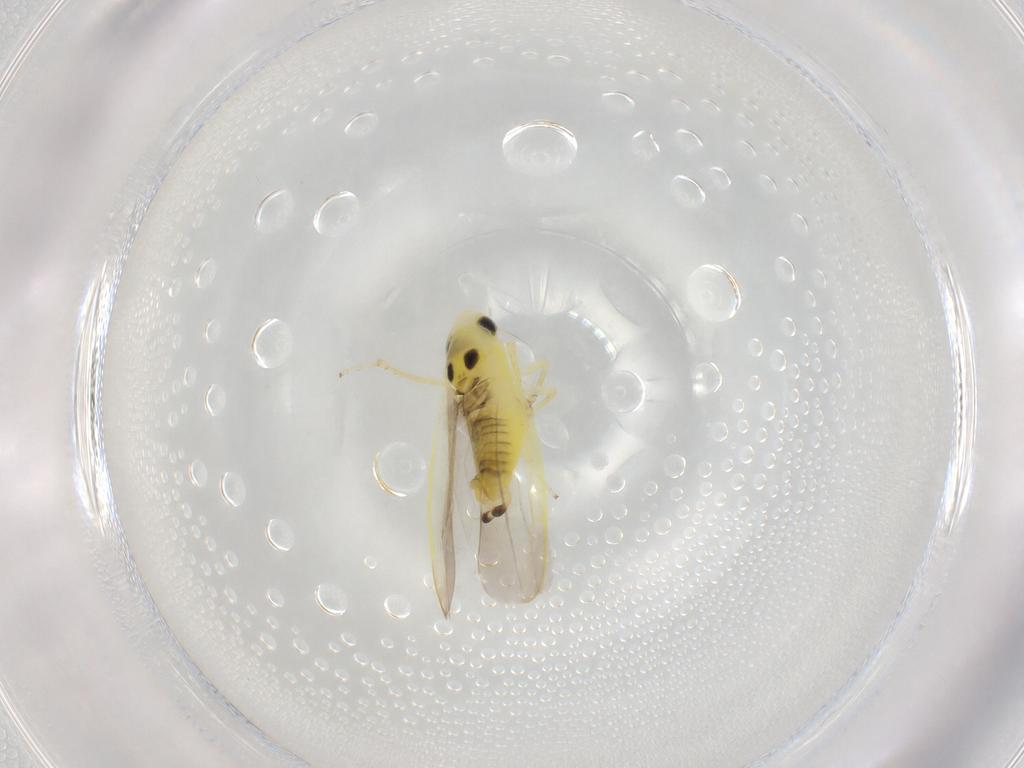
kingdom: Animalia
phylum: Arthropoda
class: Insecta
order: Hemiptera
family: Cicadellidae
